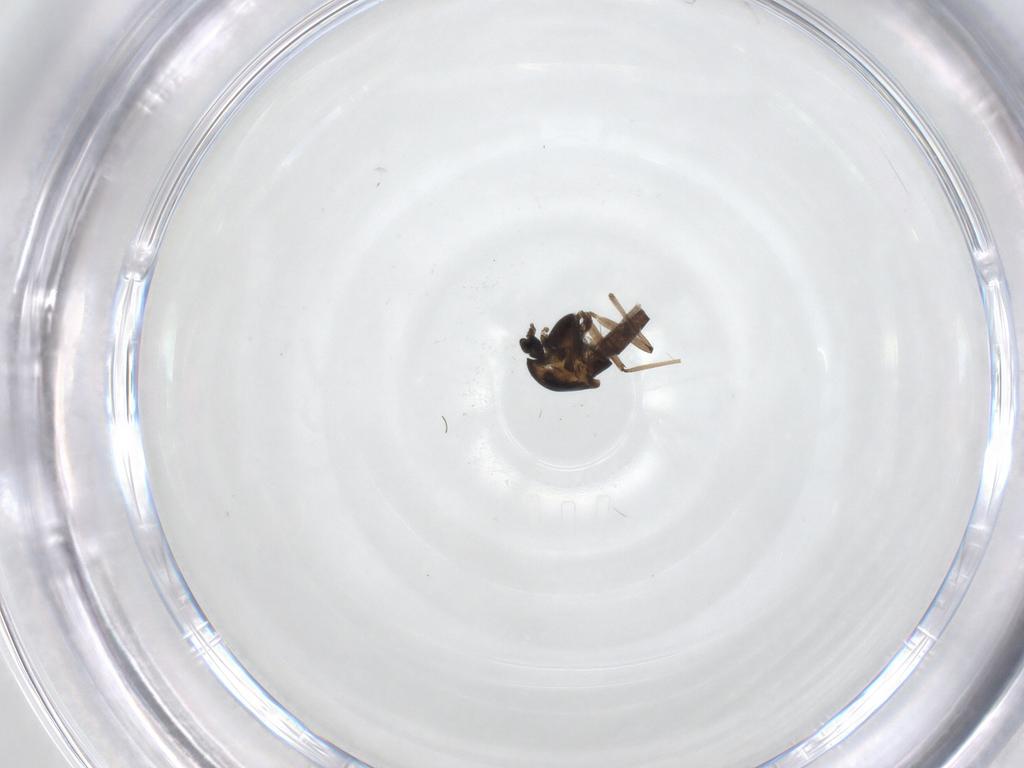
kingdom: Animalia
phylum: Arthropoda
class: Insecta
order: Diptera
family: Chironomidae
